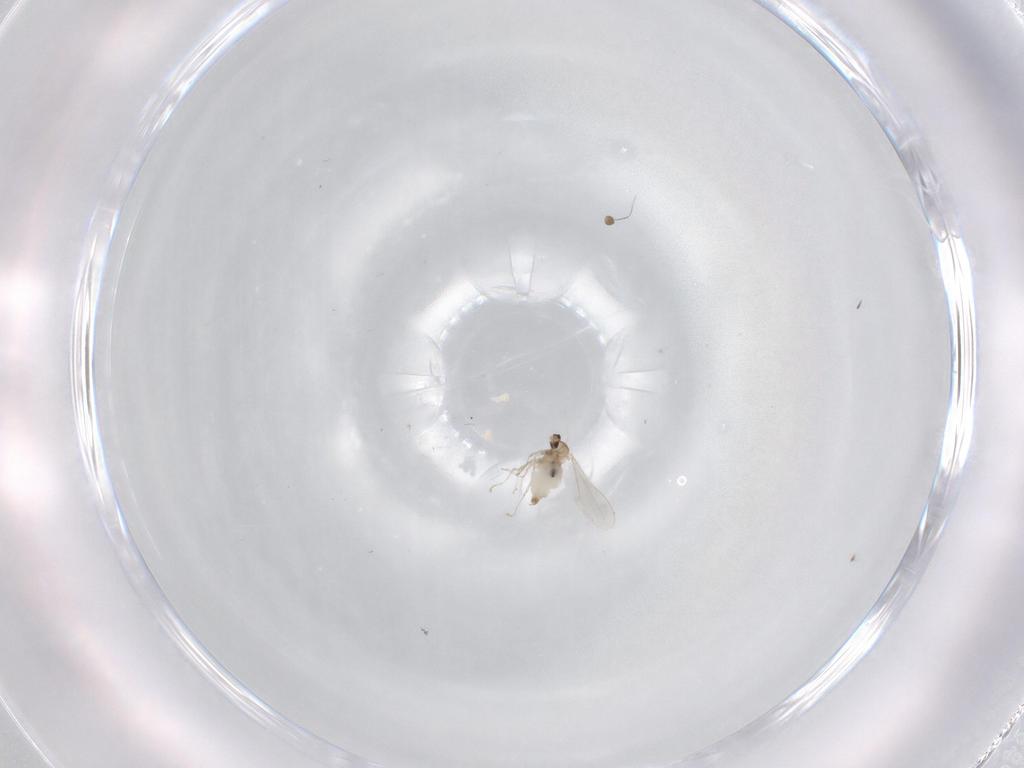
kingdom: Animalia
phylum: Arthropoda
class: Insecta
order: Diptera
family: Cecidomyiidae
